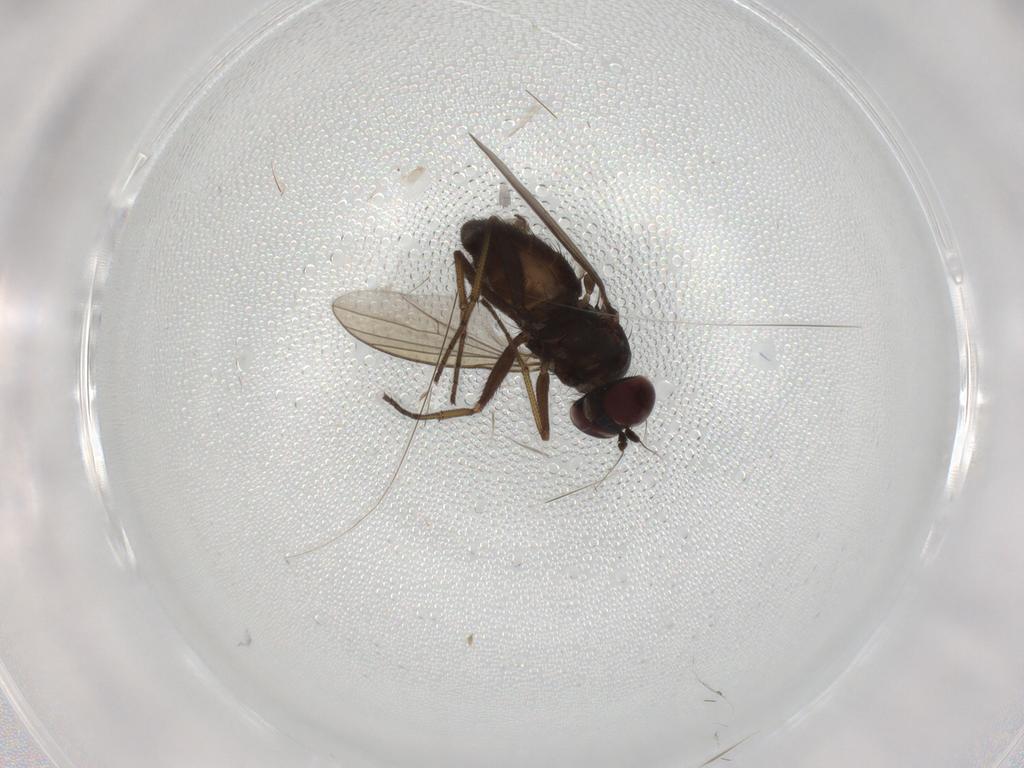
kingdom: Animalia
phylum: Arthropoda
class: Insecta
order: Diptera
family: Dolichopodidae
